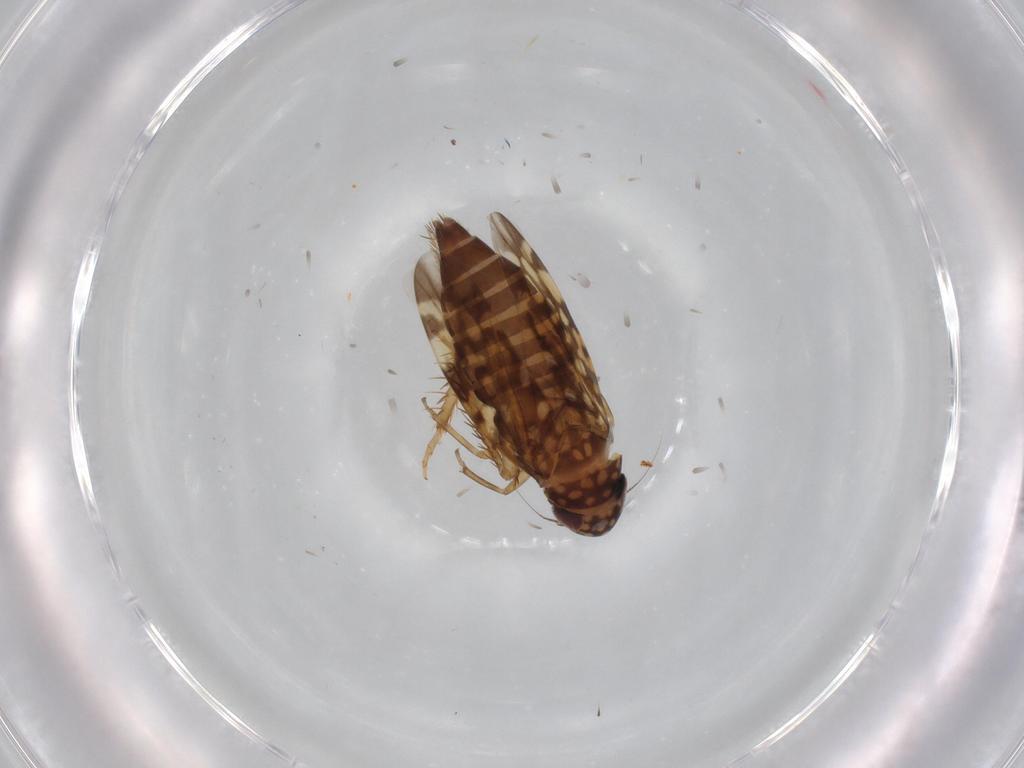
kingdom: Animalia
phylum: Arthropoda
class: Insecta
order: Hemiptera
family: Cicadellidae
